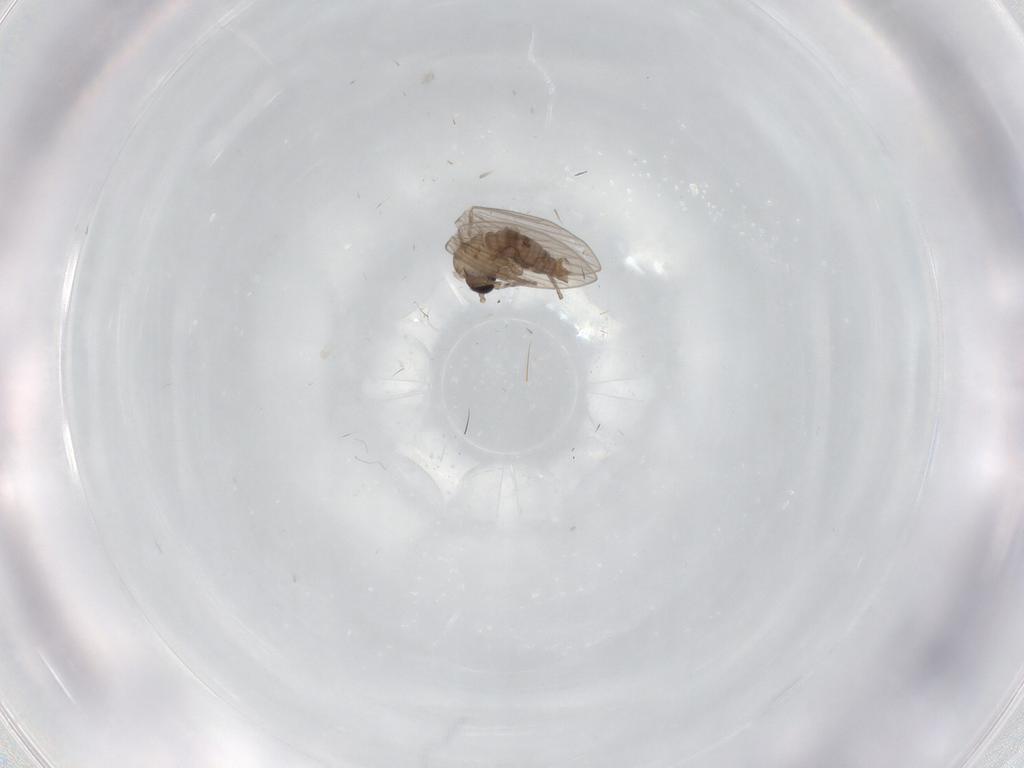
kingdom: Animalia
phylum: Arthropoda
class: Insecta
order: Diptera
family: Psychodidae
